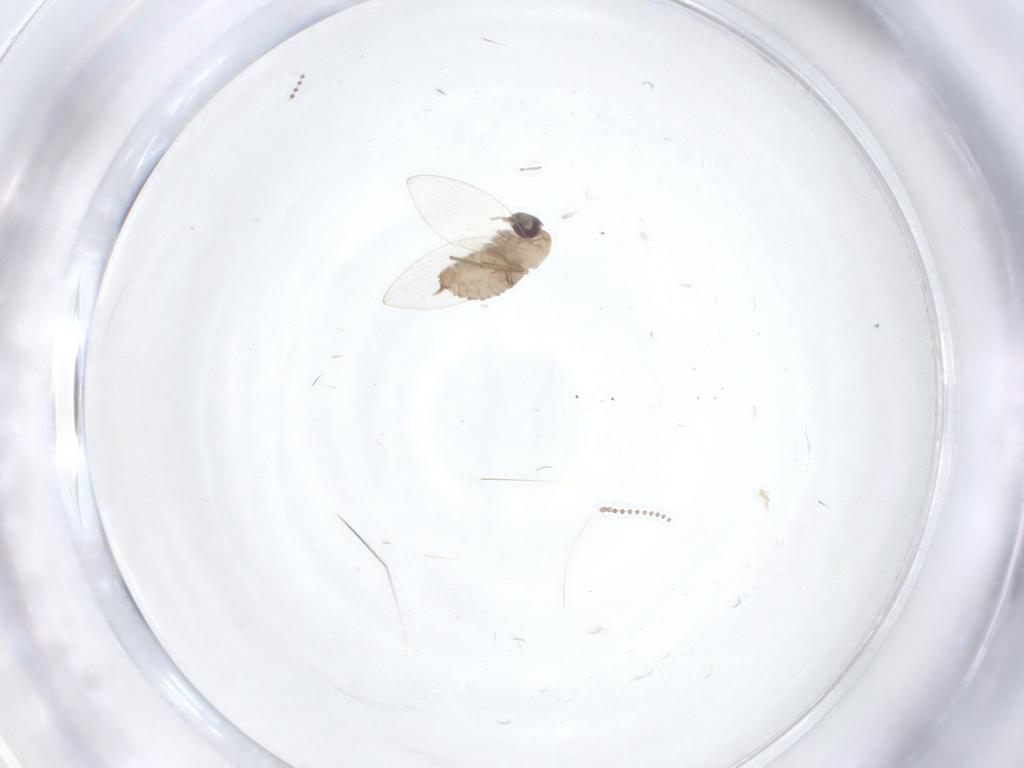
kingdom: Animalia
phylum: Arthropoda
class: Insecta
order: Diptera
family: Psychodidae
